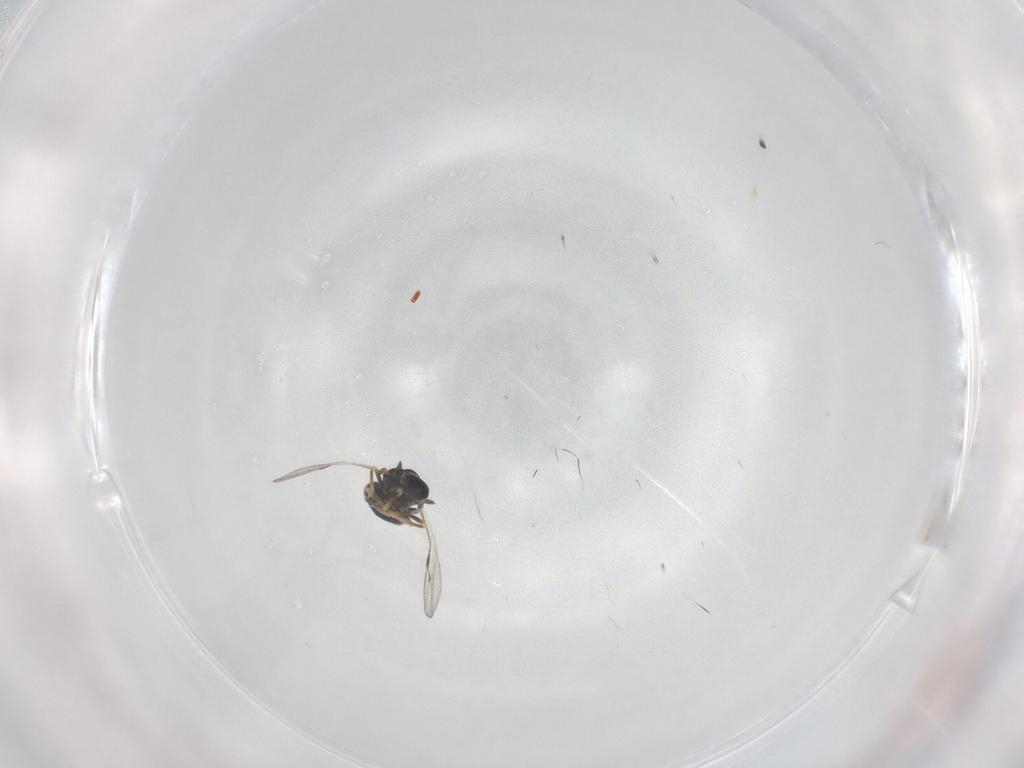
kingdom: Animalia
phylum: Arthropoda
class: Insecta
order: Hymenoptera
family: Pteromalidae
